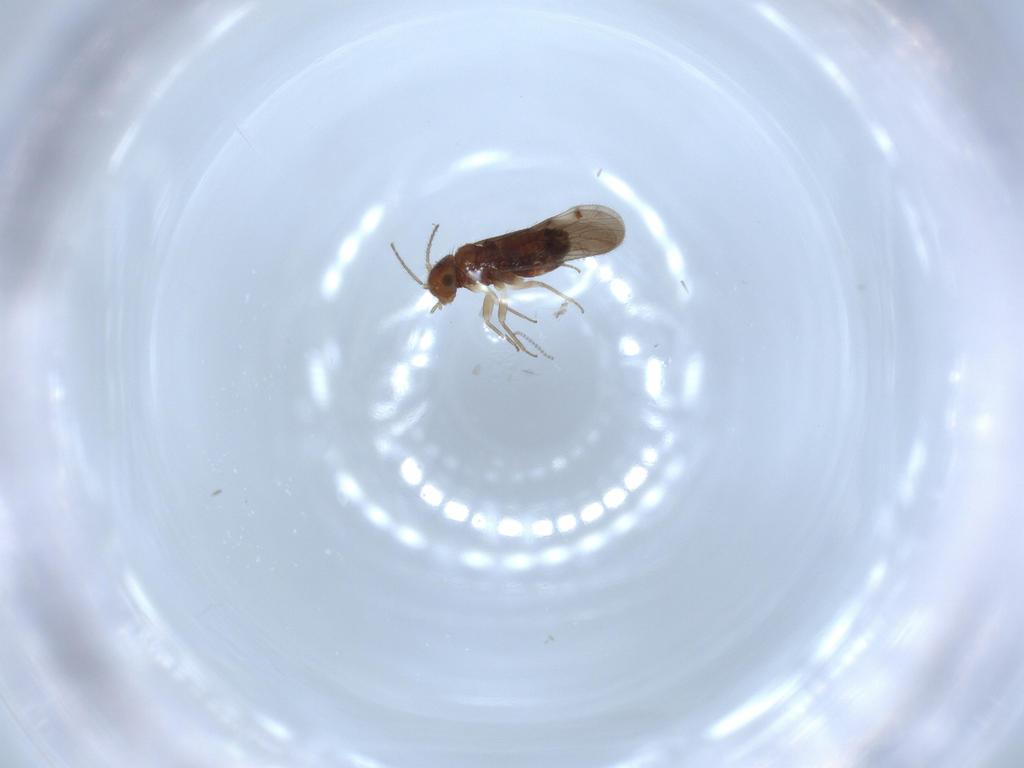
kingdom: Animalia
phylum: Arthropoda
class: Insecta
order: Psocodea
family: Ectopsocidae
